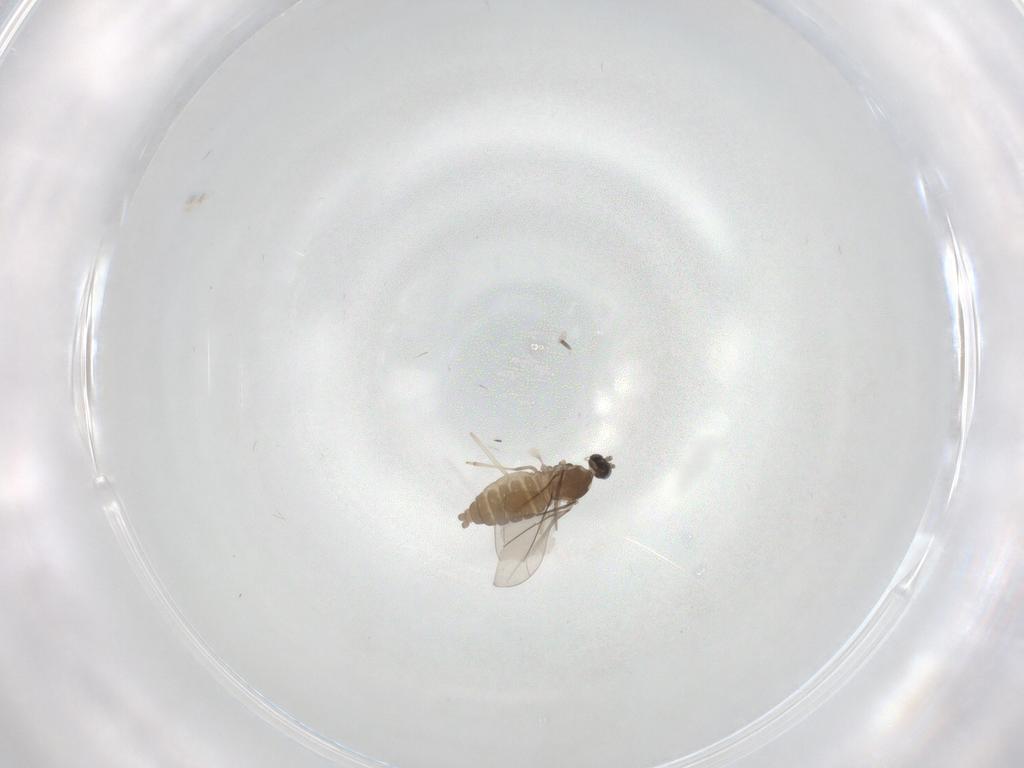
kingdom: Animalia
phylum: Arthropoda
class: Insecta
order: Diptera
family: Cecidomyiidae
